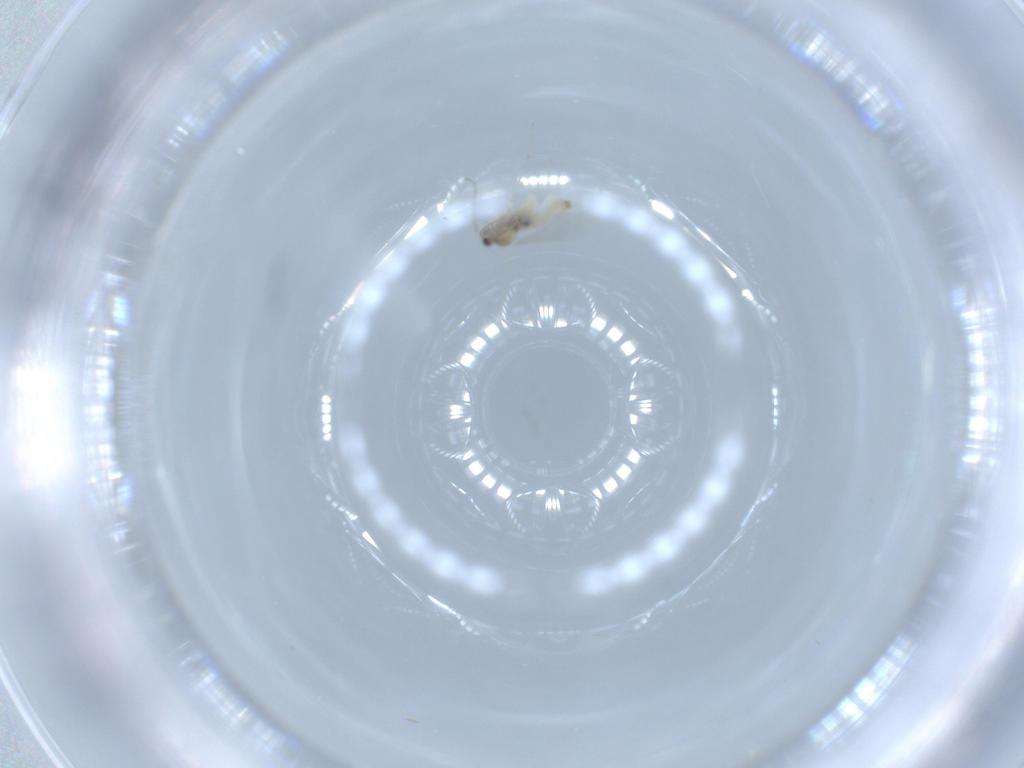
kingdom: Animalia
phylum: Arthropoda
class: Insecta
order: Diptera
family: Cecidomyiidae
